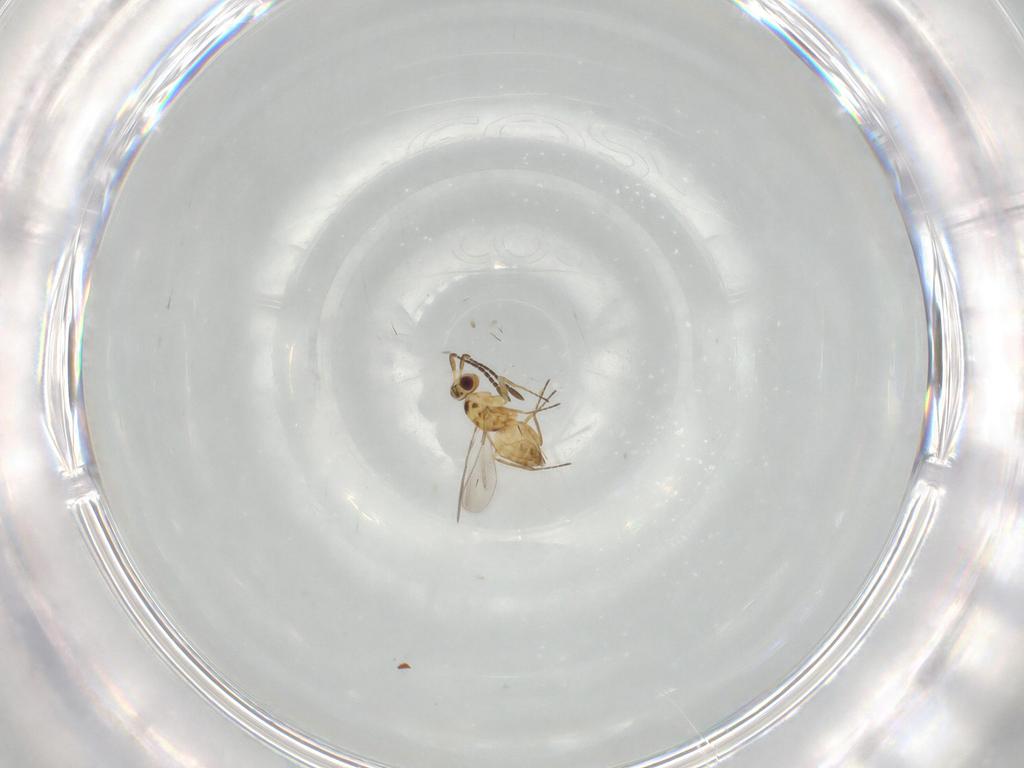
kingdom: Animalia
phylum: Arthropoda
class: Insecta
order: Hymenoptera
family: Mymaridae
